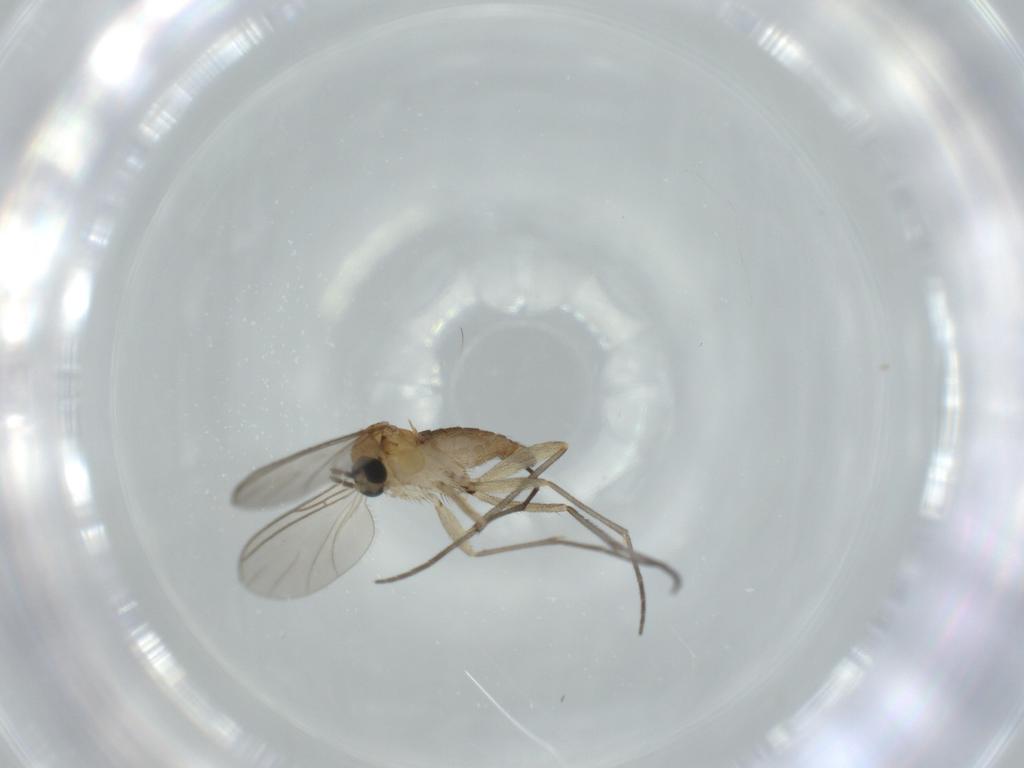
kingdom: Animalia
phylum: Arthropoda
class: Insecta
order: Diptera
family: Sciaridae
